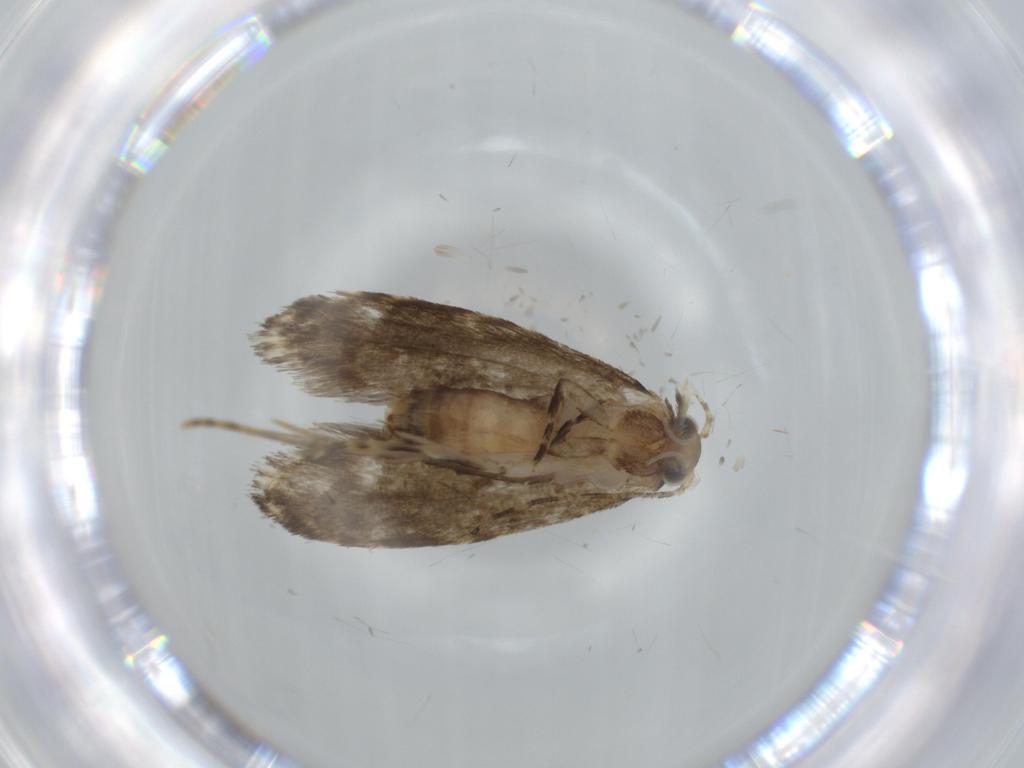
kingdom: Animalia
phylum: Arthropoda
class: Insecta
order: Lepidoptera
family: Tineidae
